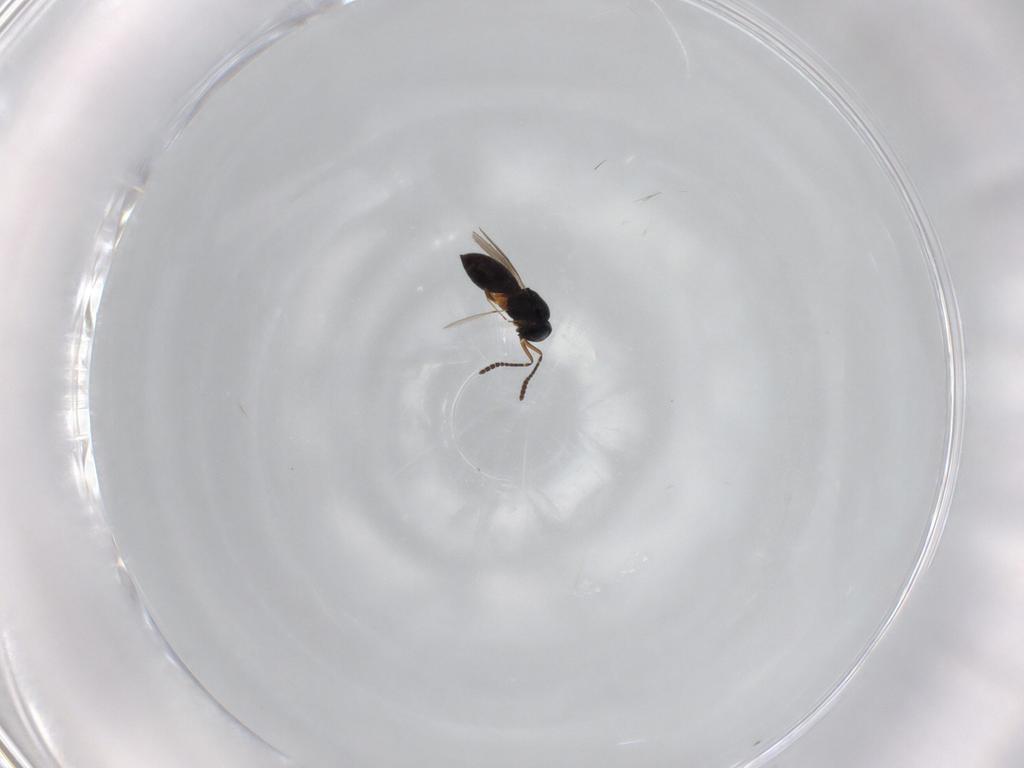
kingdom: Animalia
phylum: Arthropoda
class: Insecta
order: Hymenoptera
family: Scelionidae
